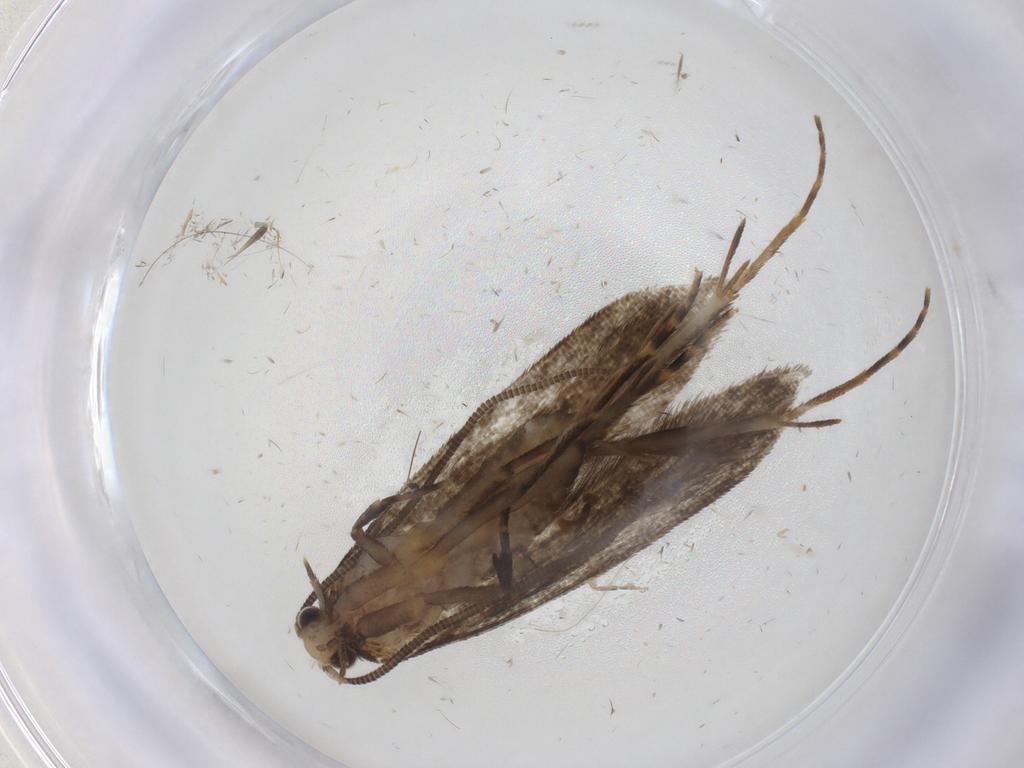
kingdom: Animalia
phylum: Arthropoda
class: Insecta
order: Lepidoptera
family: Tineidae
